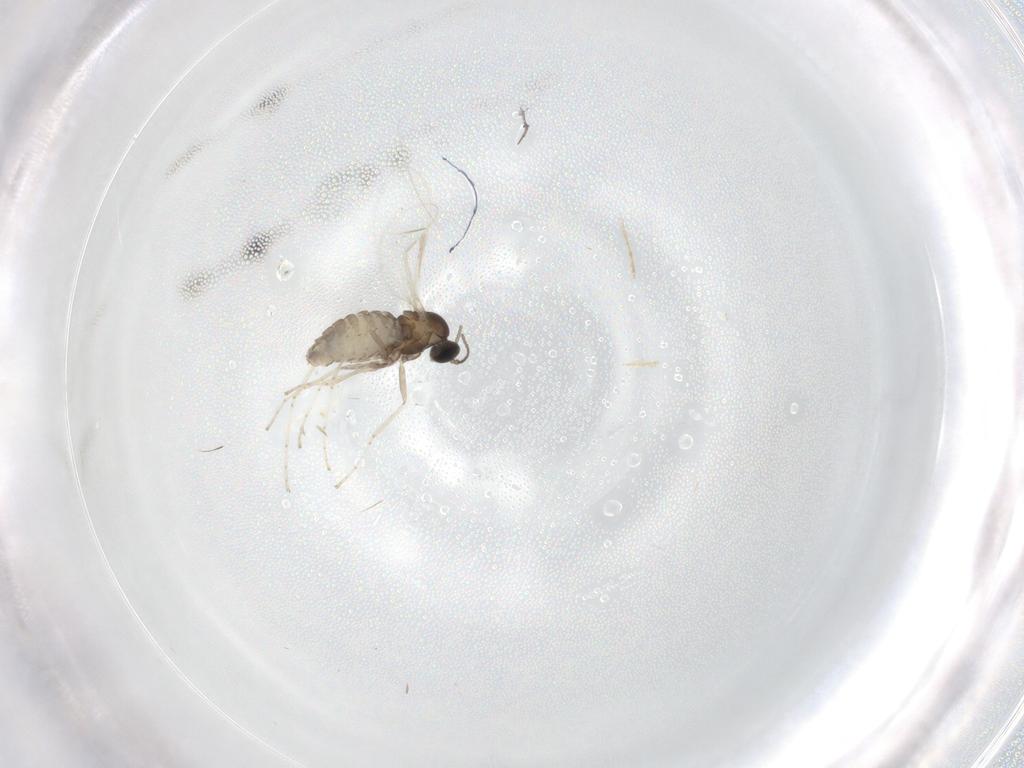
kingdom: Animalia
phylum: Arthropoda
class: Insecta
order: Diptera
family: Cecidomyiidae
